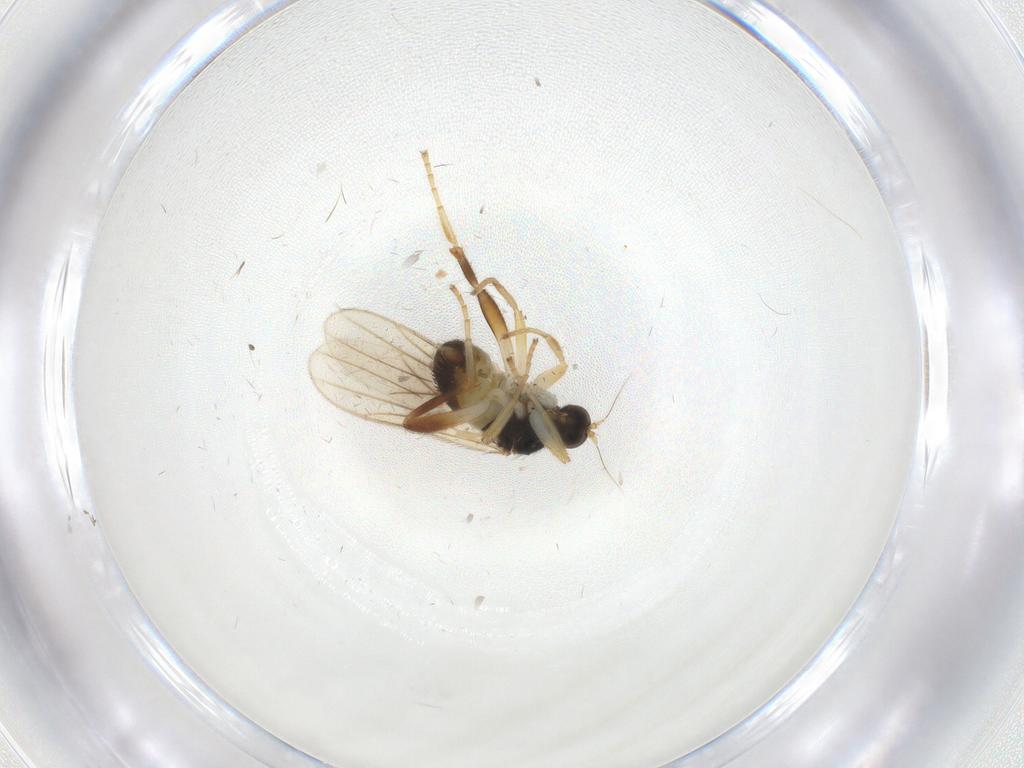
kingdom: Animalia
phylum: Arthropoda
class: Insecta
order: Diptera
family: Hybotidae
